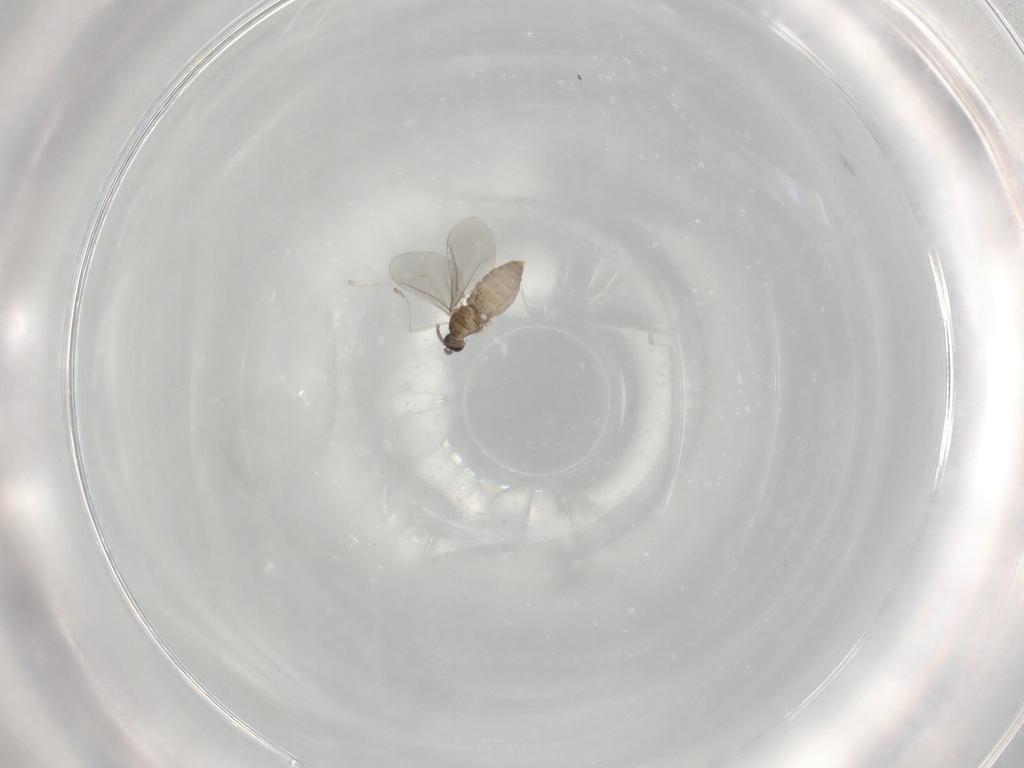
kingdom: Animalia
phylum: Arthropoda
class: Insecta
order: Diptera
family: Cecidomyiidae
